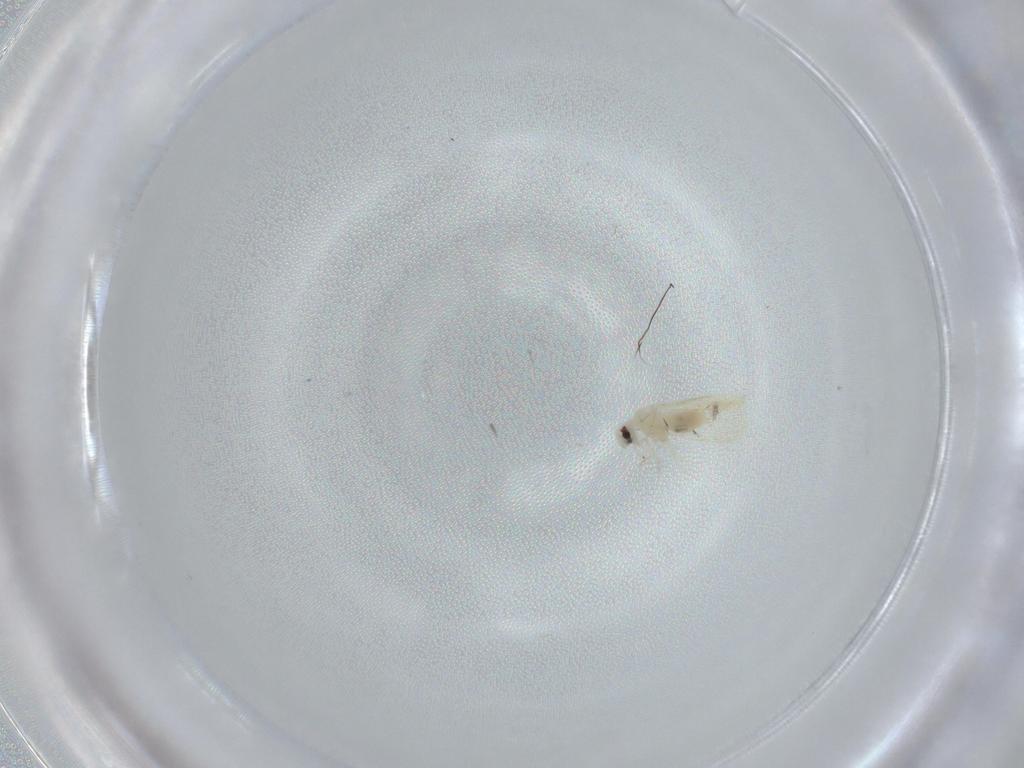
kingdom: Animalia
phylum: Arthropoda
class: Insecta
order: Hemiptera
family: Aleyrodidae
